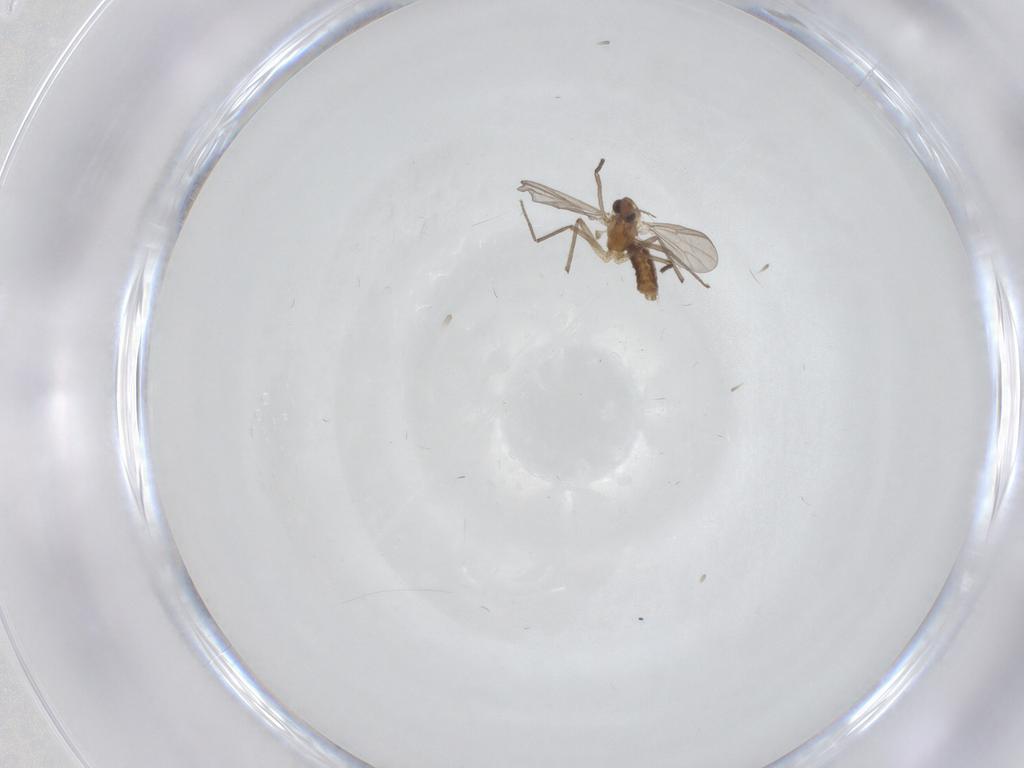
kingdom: Animalia
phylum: Arthropoda
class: Insecta
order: Diptera
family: Chironomidae
